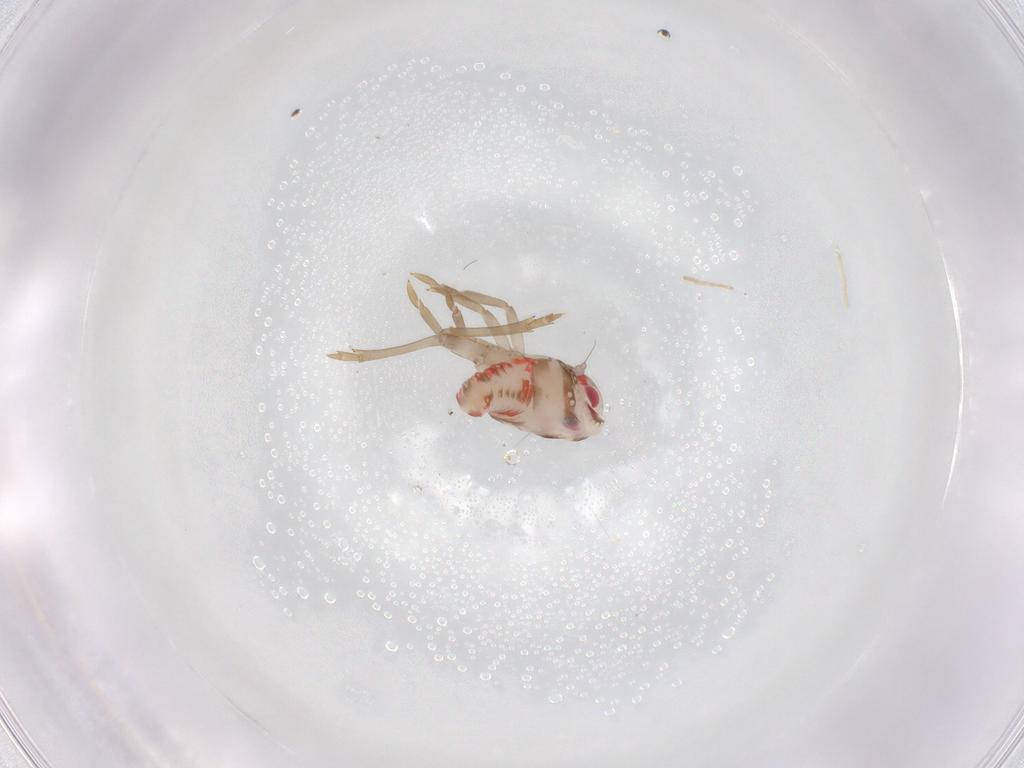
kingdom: Animalia
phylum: Arthropoda
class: Insecta
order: Hemiptera
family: Nogodinidae
